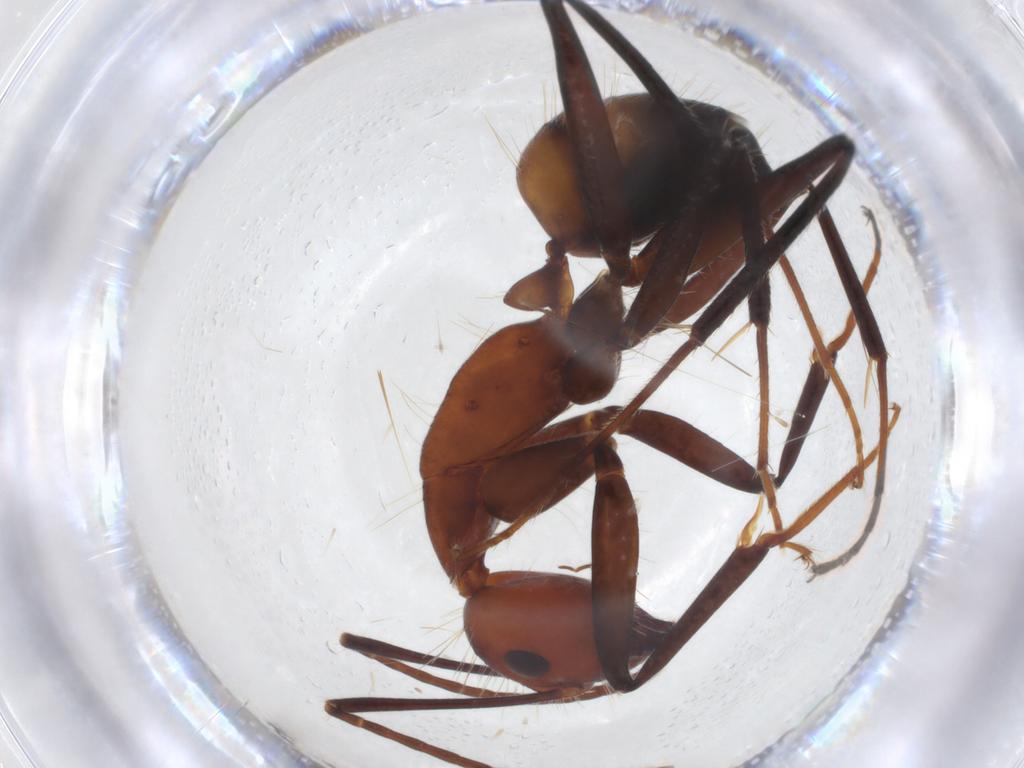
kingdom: Animalia
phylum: Arthropoda
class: Insecta
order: Hymenoptera
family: Formicidae
